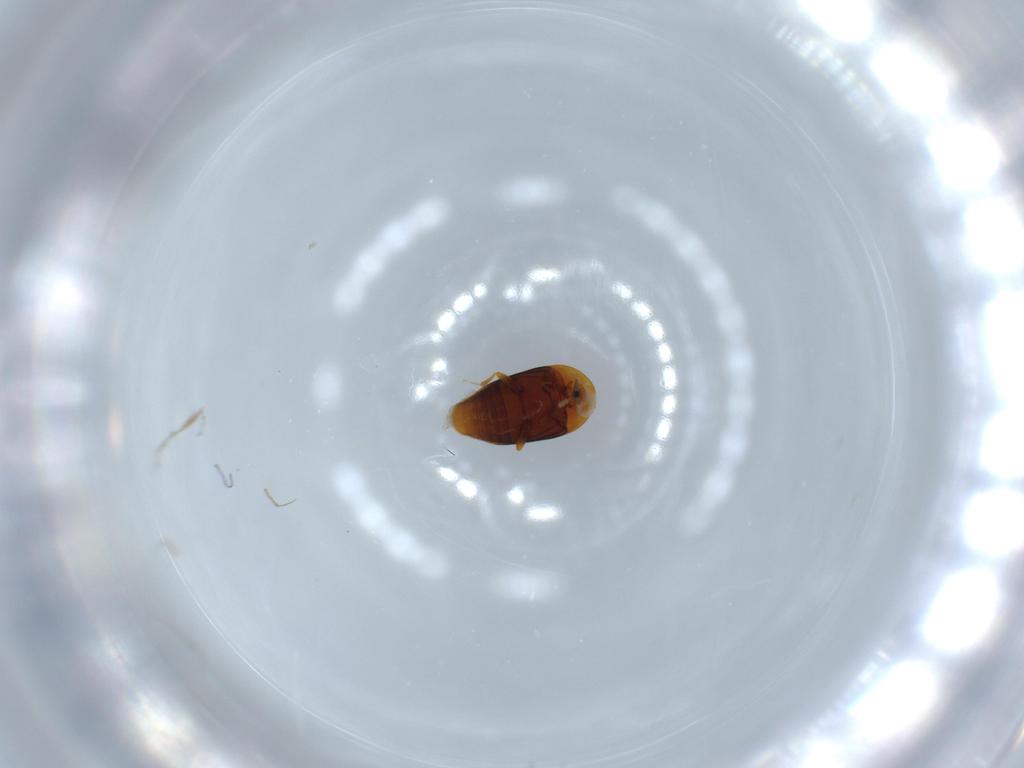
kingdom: Animalia
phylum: Arthropoda
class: Insecta
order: Coleoptera
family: Corylophidae
